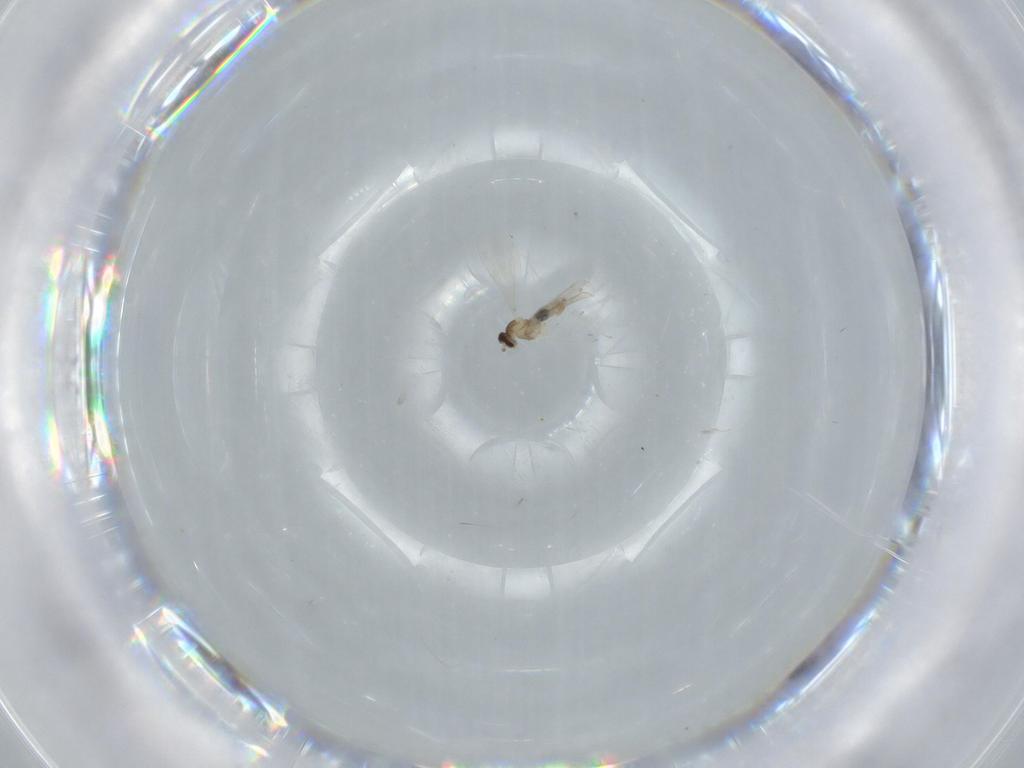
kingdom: Animalia
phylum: Arthropoda
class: Insecta
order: Diptera
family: Cecidomyiidae
